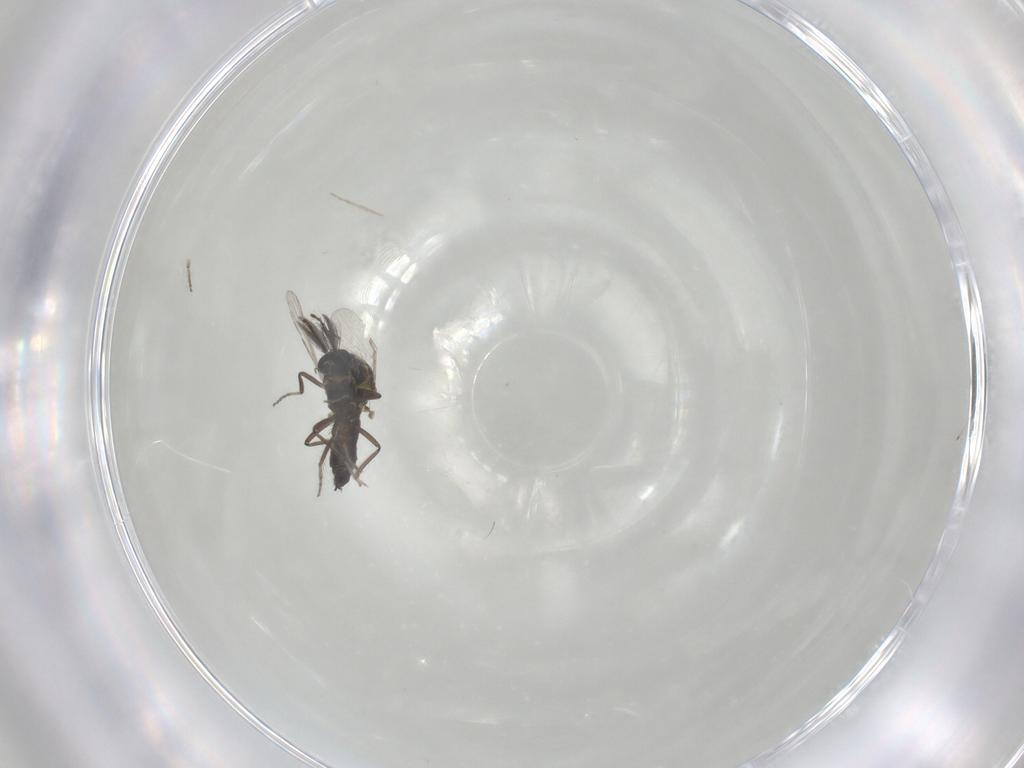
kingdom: Animalia
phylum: Arthropoda
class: Insecta
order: Diptera
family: Ceratopogonidae
